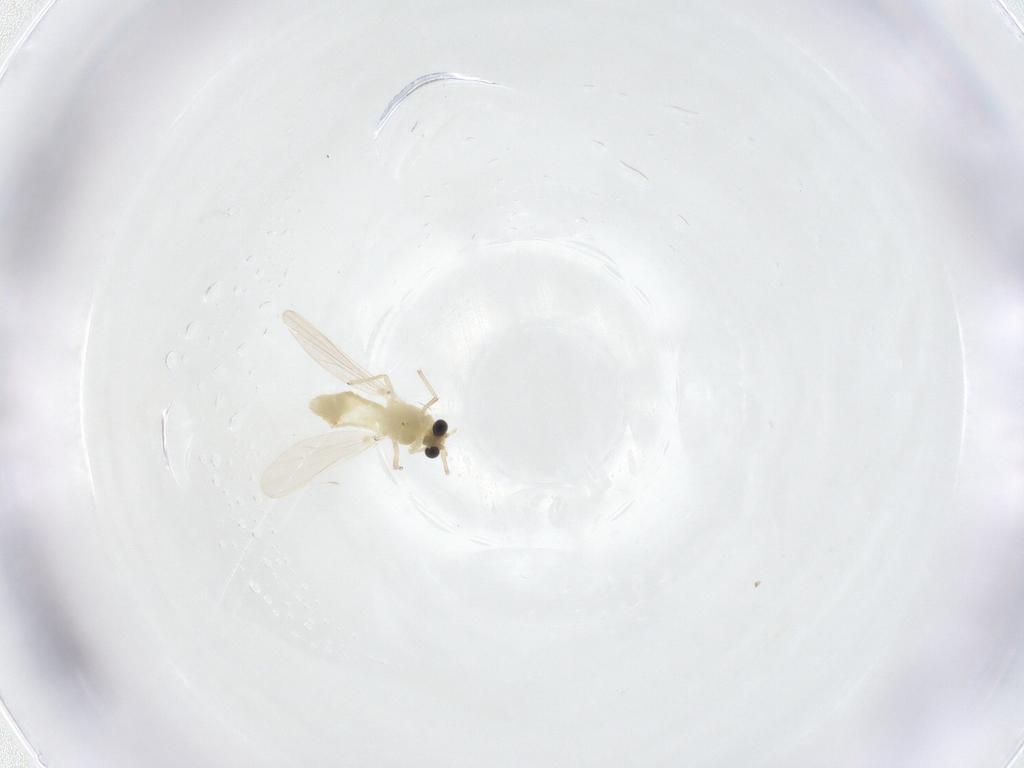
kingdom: Animalia
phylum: Arthropoda
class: Insecta
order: Diptera
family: Chironomidae
